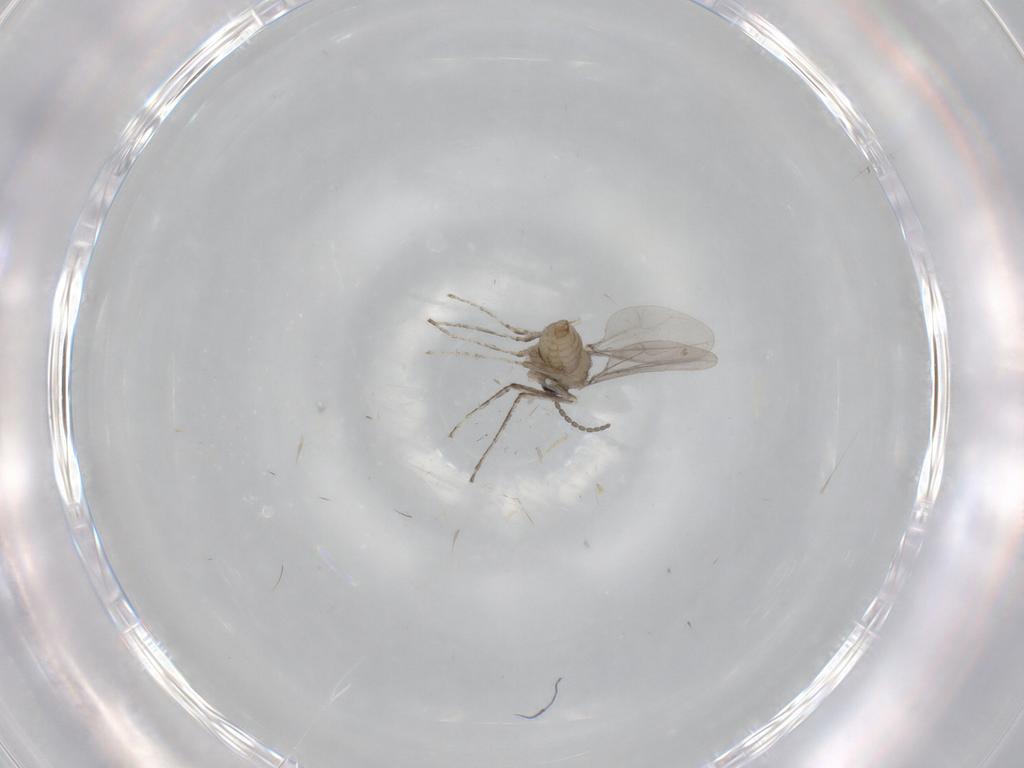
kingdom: Animalia
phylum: Arthropoda
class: Insecta
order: Diptera
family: Cecidomyiidae
